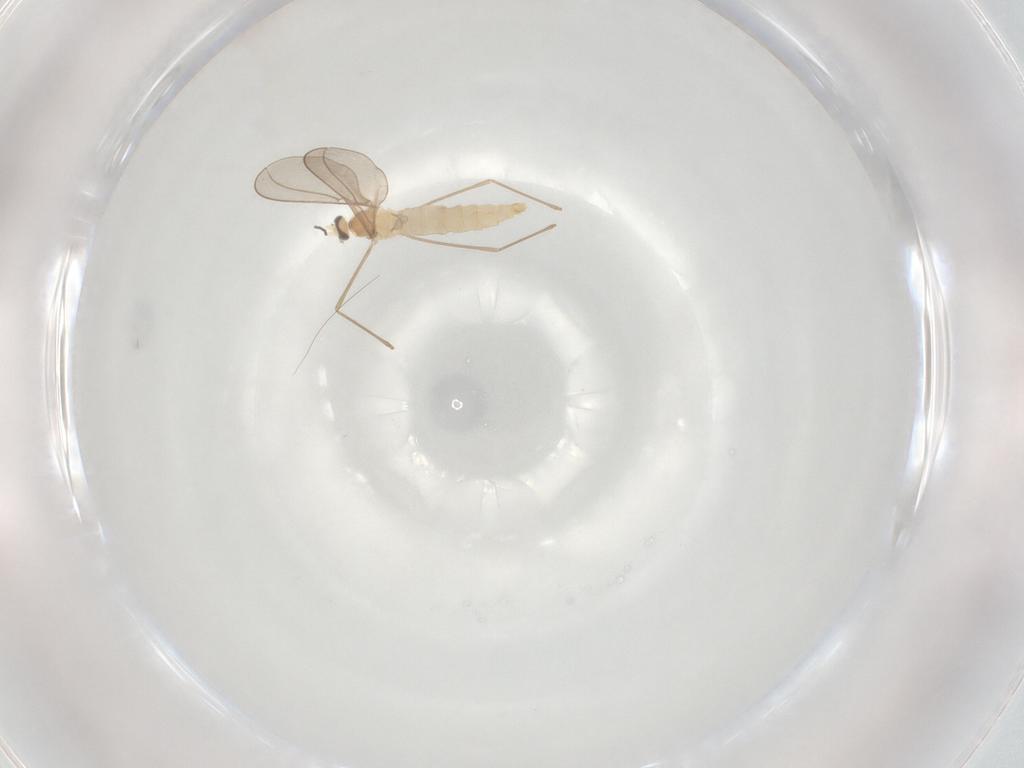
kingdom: Animalia
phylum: Arthropoda
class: Insecta
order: Diptera
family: Cecidomyiidae
